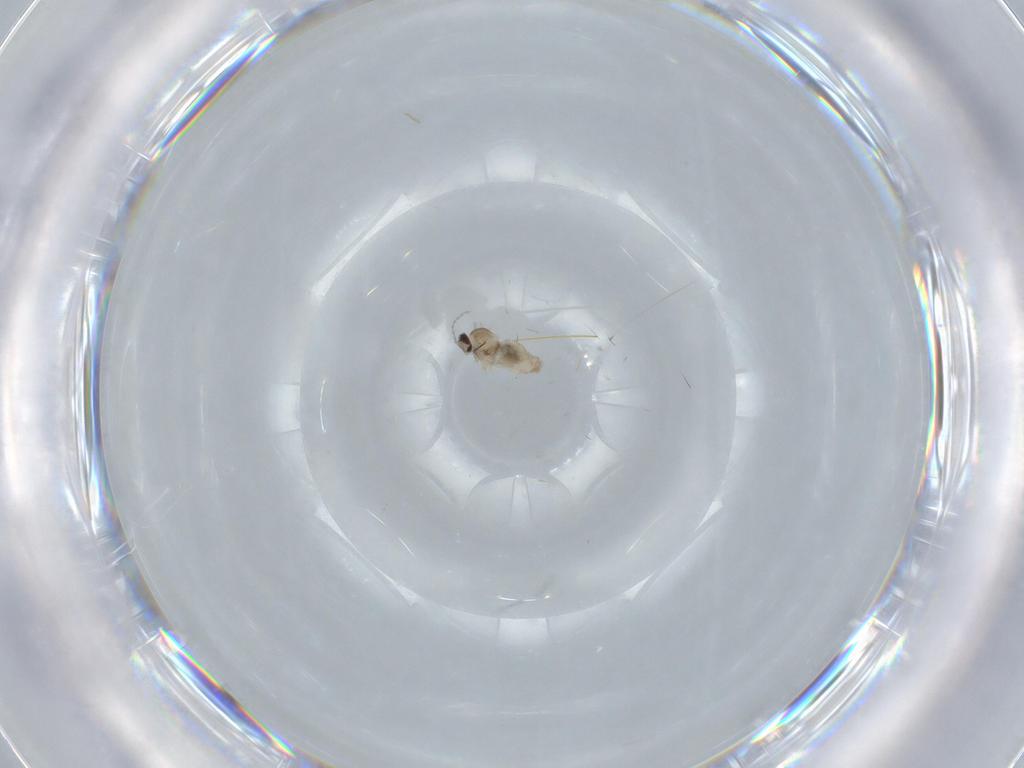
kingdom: Animalia
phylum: Arthropoda
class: Insecta
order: Diptera
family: Cecidomyiidae
